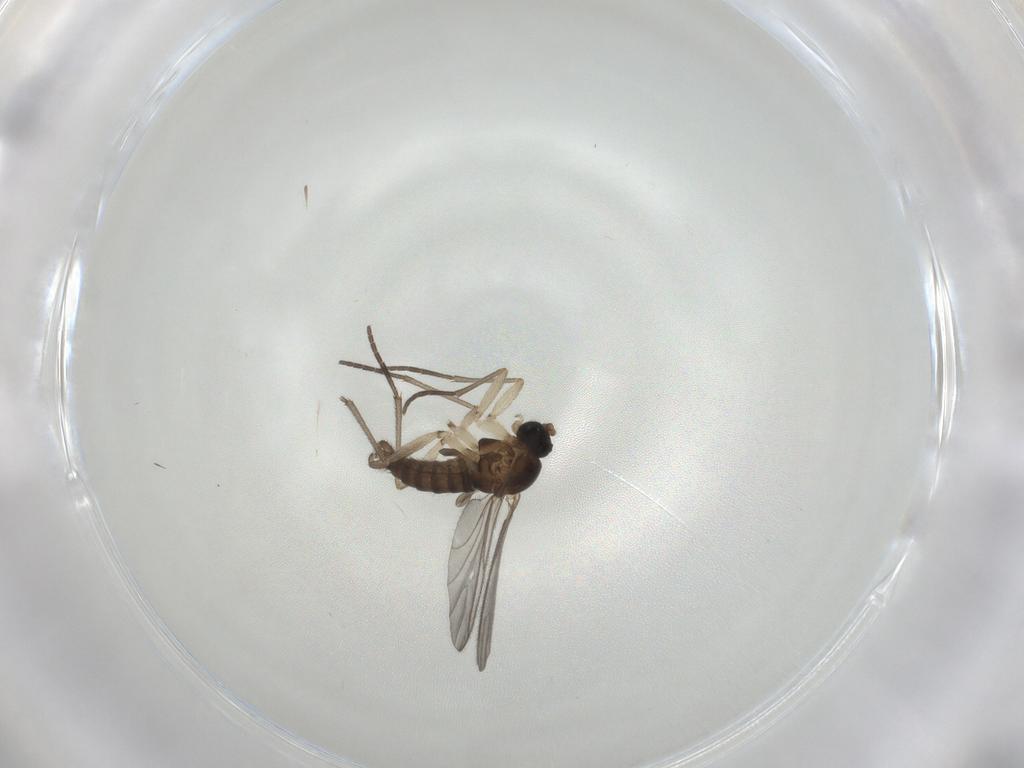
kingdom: Animalia
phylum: Arthropoda
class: Insecta
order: Diptera
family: Sciaridae
